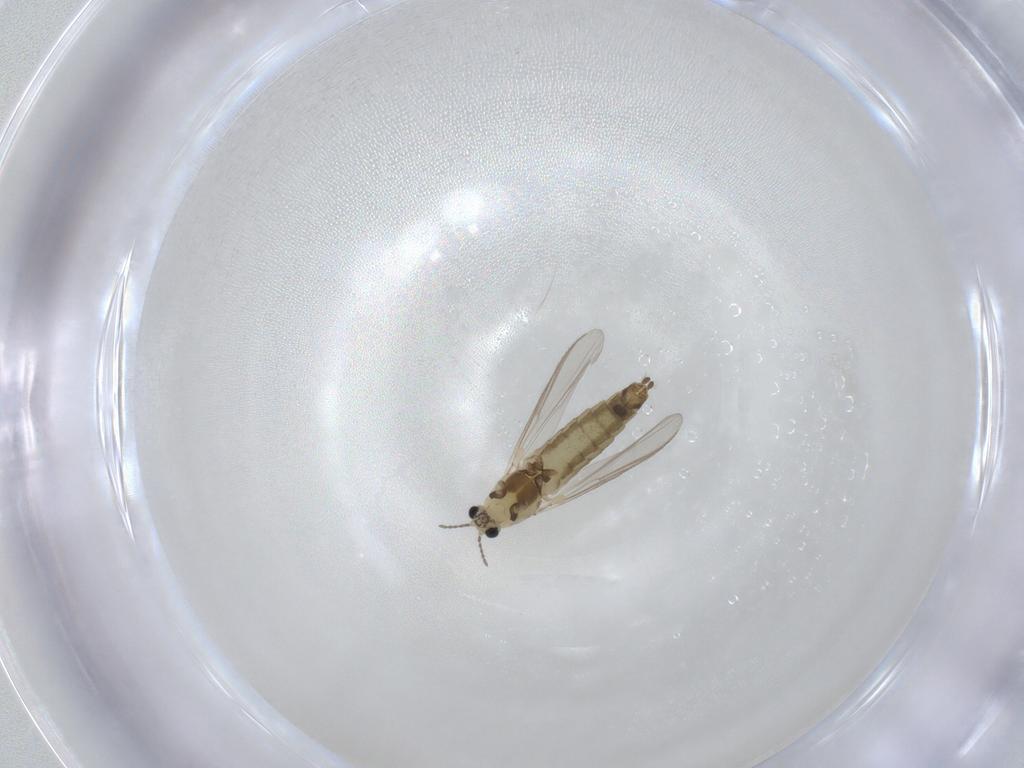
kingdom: Animalia
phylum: Arthropoda
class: Insecta
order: Diptera
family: Chironomidae
